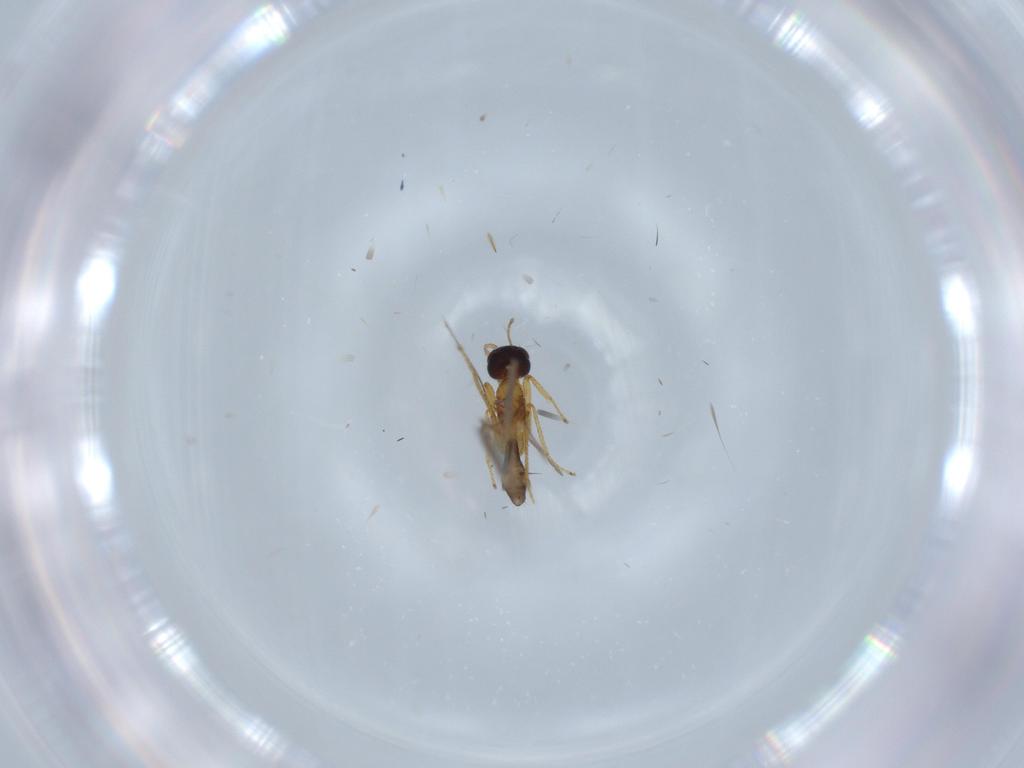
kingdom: Animalia
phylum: Arthropoda
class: Insecta
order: Hymenoptera
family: Mymaridae
